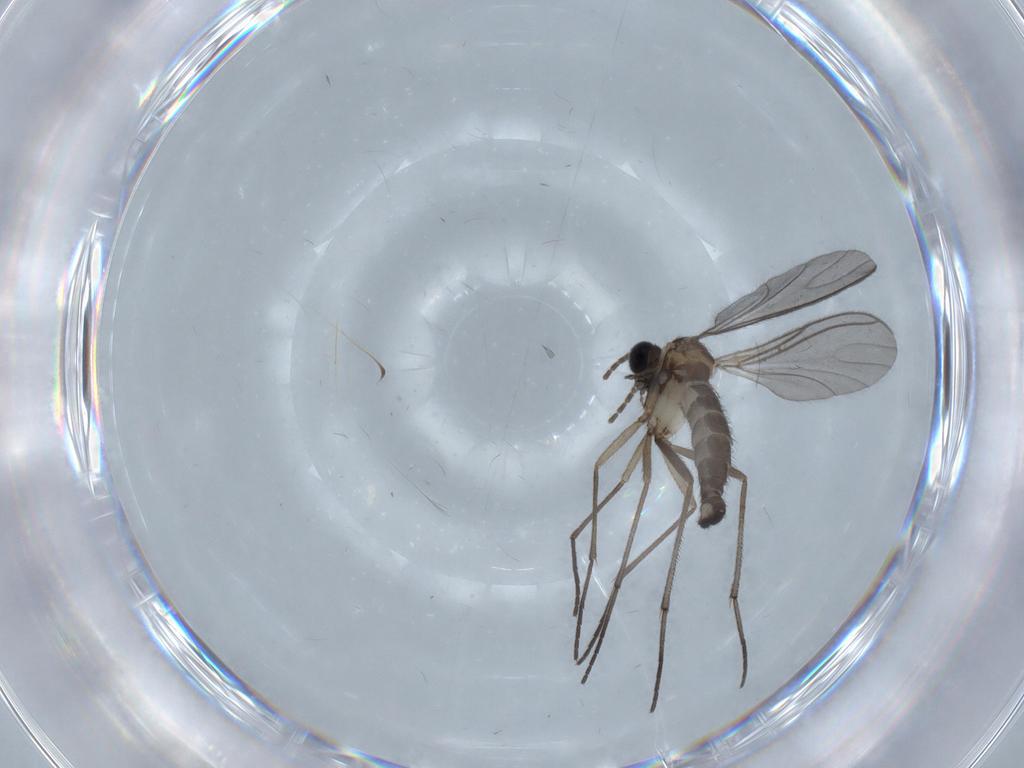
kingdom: Animalia
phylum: Arthropoda
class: Insecta
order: Diptera
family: Sciaridae
